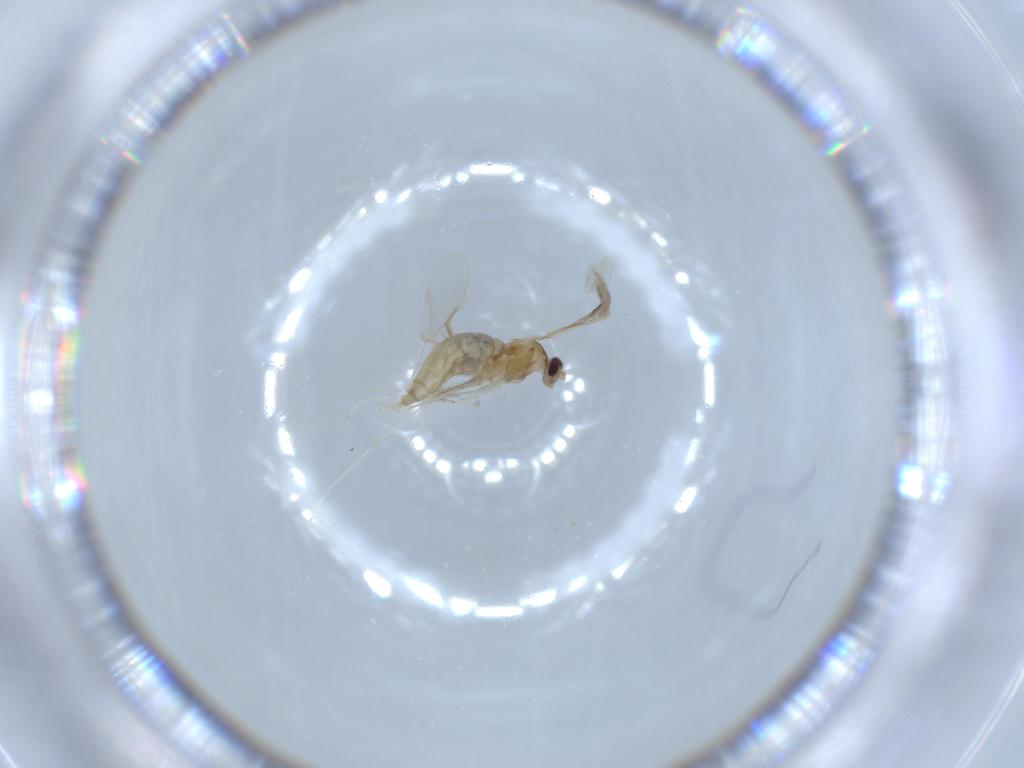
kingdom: Animalia
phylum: Arthropoda
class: Insecta
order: Diptera
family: Cecidomyiidae
